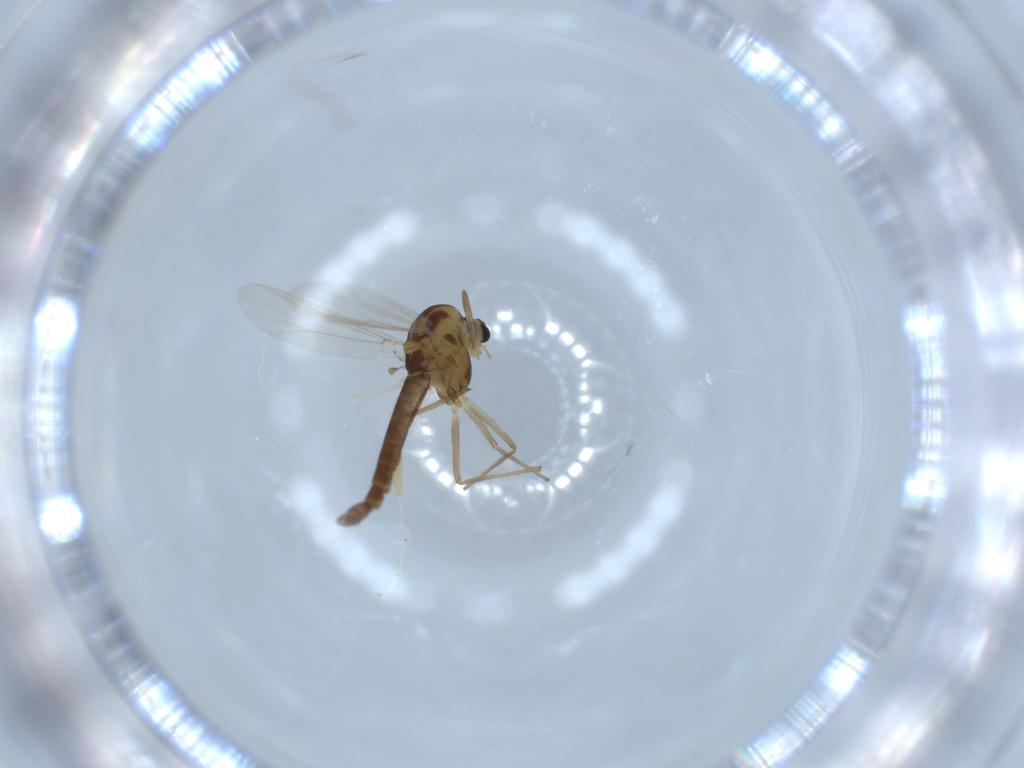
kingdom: Animalia
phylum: Arthropoda
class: Insecta
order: Diptera
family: Chironomidae
